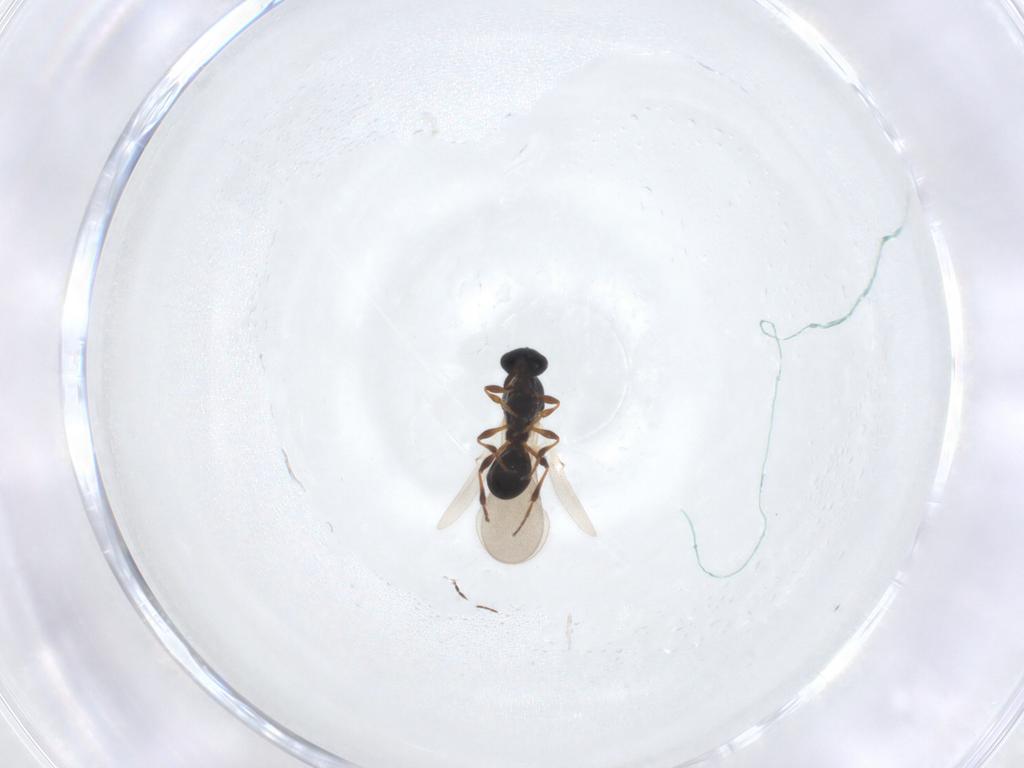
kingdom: Animalia
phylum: Arthropoda
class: Insecta
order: Hymenoptera
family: Platygastridae
